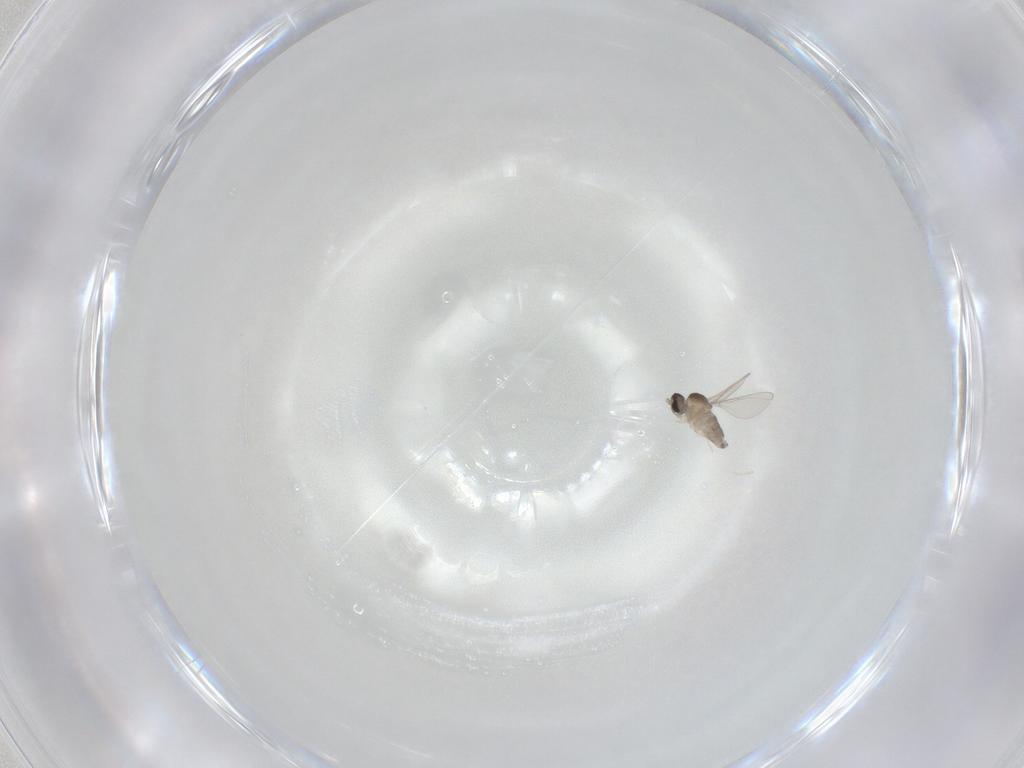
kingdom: Animalia
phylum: Arthropoda
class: Insecta
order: Diptera
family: Cecidomyiidae
